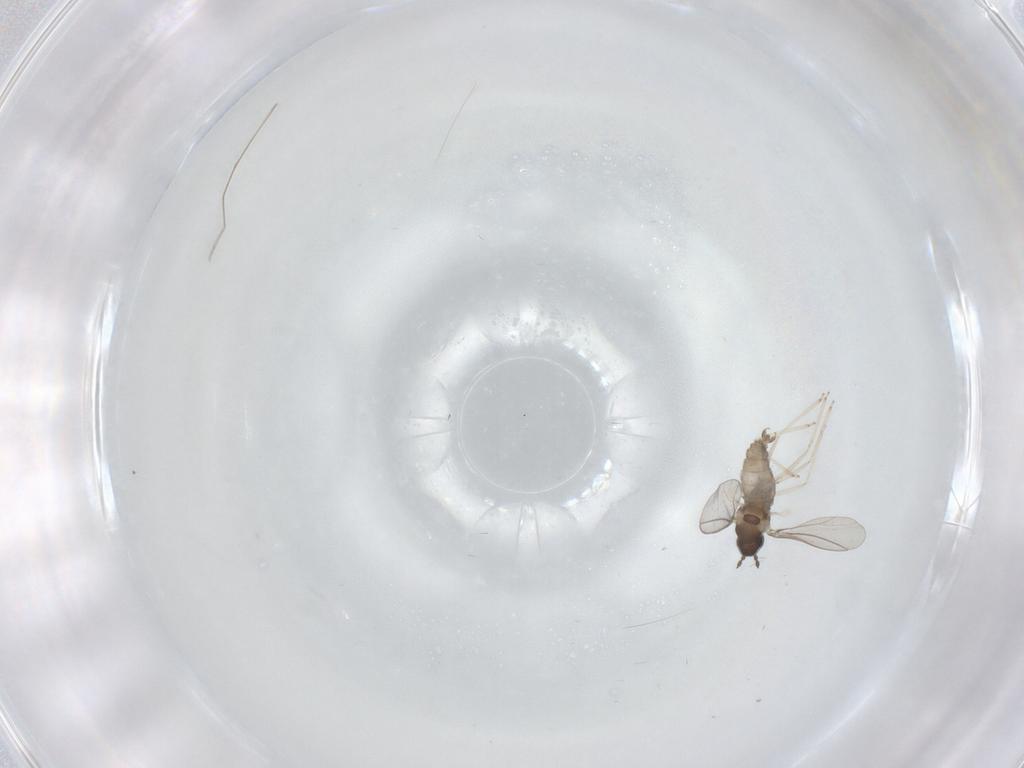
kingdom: Animalia
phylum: Arthropoda
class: Insecta
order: Diptera
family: Cecidomyiidae
